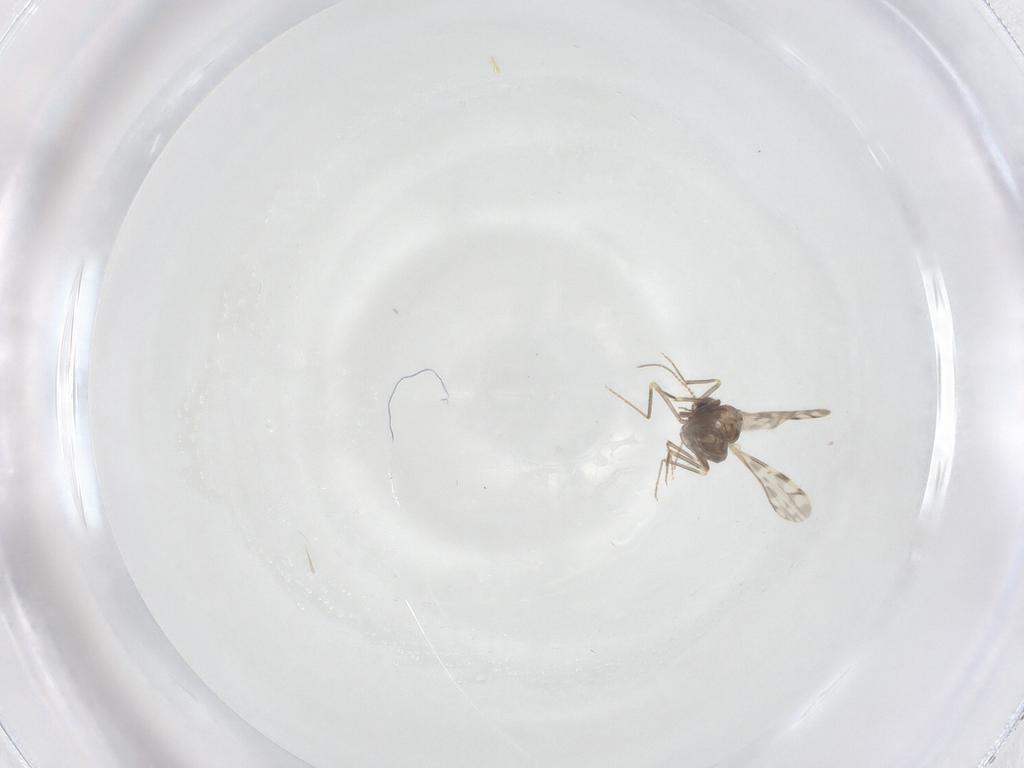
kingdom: Animalia
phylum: Arthropoda
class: Insecta
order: Diptera
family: Ceratopogonidae
